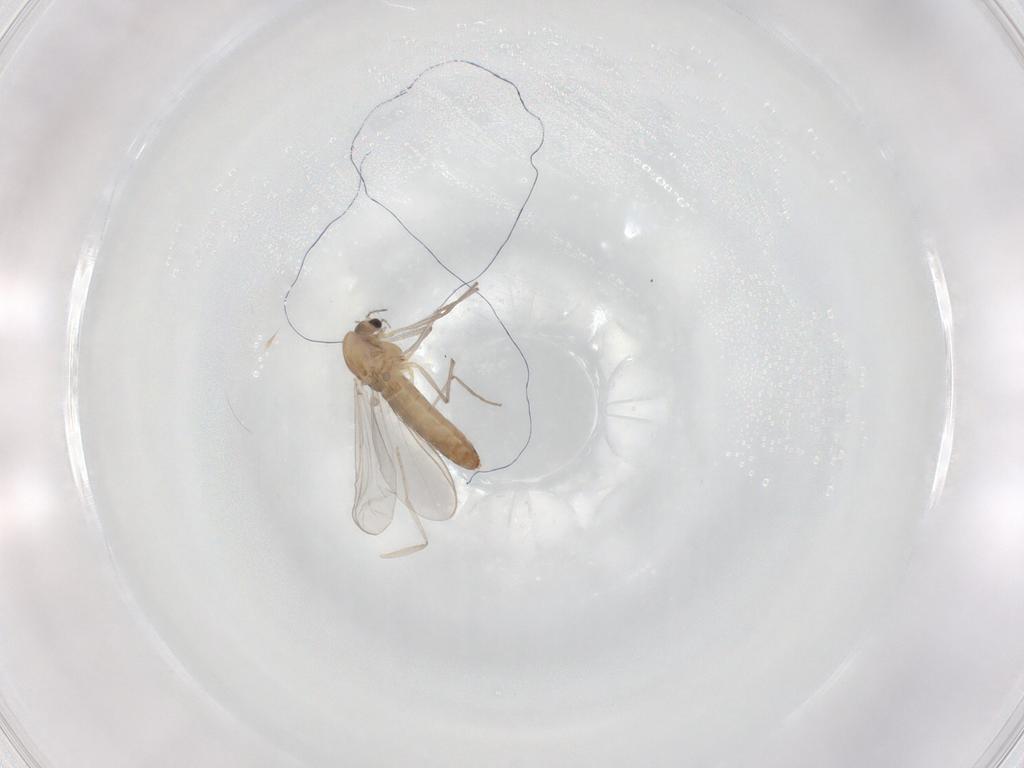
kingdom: Animalia
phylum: Arthropoda
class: Insecta
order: Diptera
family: Chironomidae
